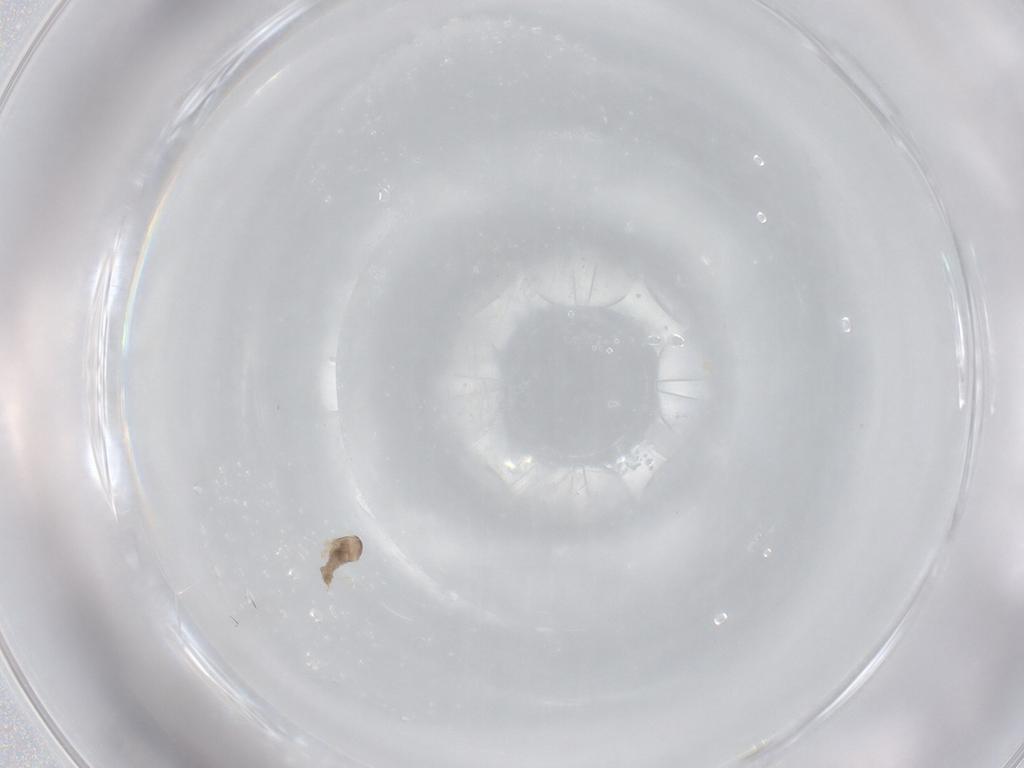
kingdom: Animalia
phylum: Arthropoda
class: Insecta
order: Diptera
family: Cecidomyiidae
